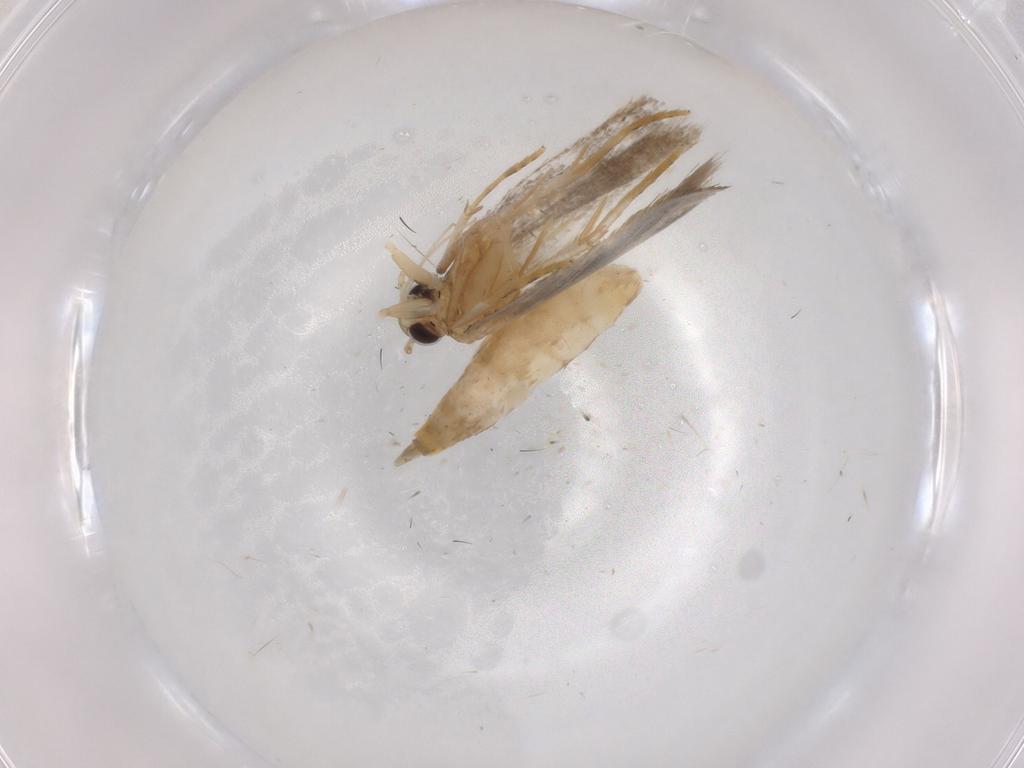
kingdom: Animalia
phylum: Arthropoda
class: Insecta
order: Lepidoptera
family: Autostichidae
